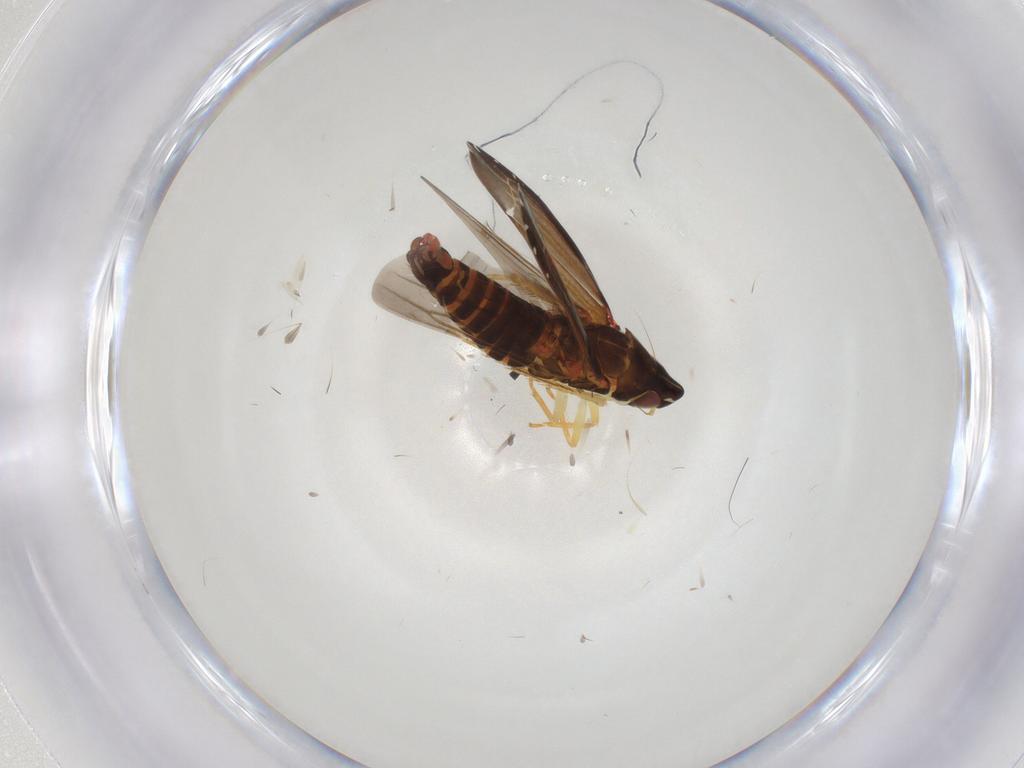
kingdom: Animalia
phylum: Arthropoda
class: Insecta
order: Hemiptera
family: Cicadellidae
